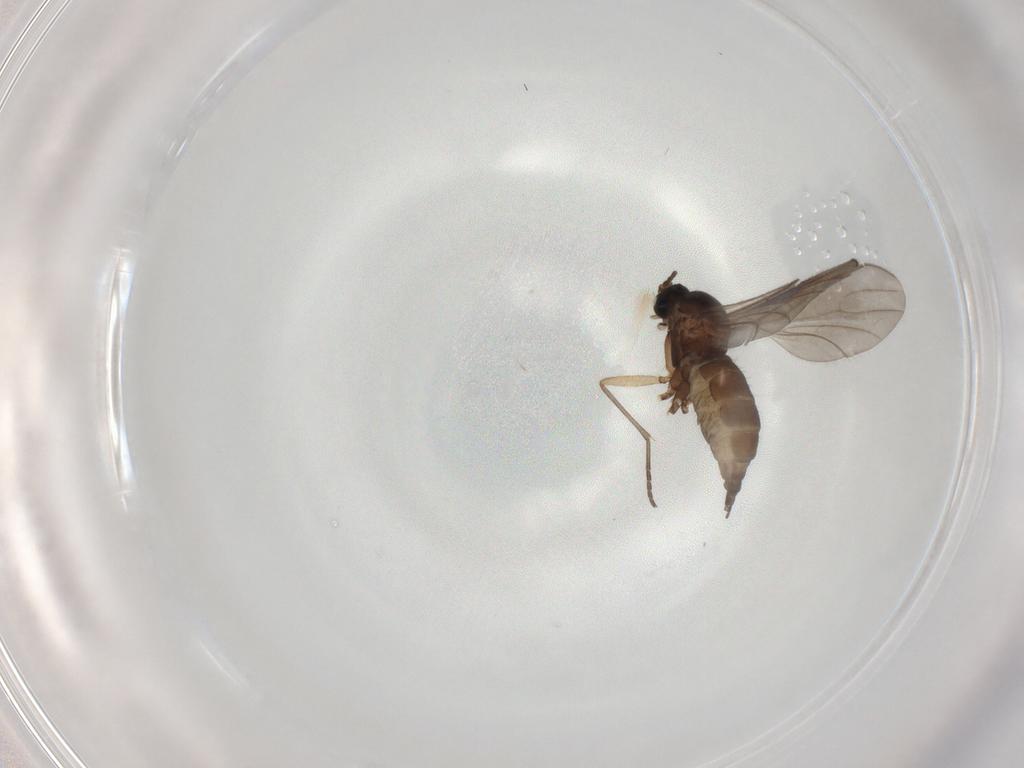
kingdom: Animalia
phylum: Arthropoda
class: Insecta
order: Diptera
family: Sciaridae
